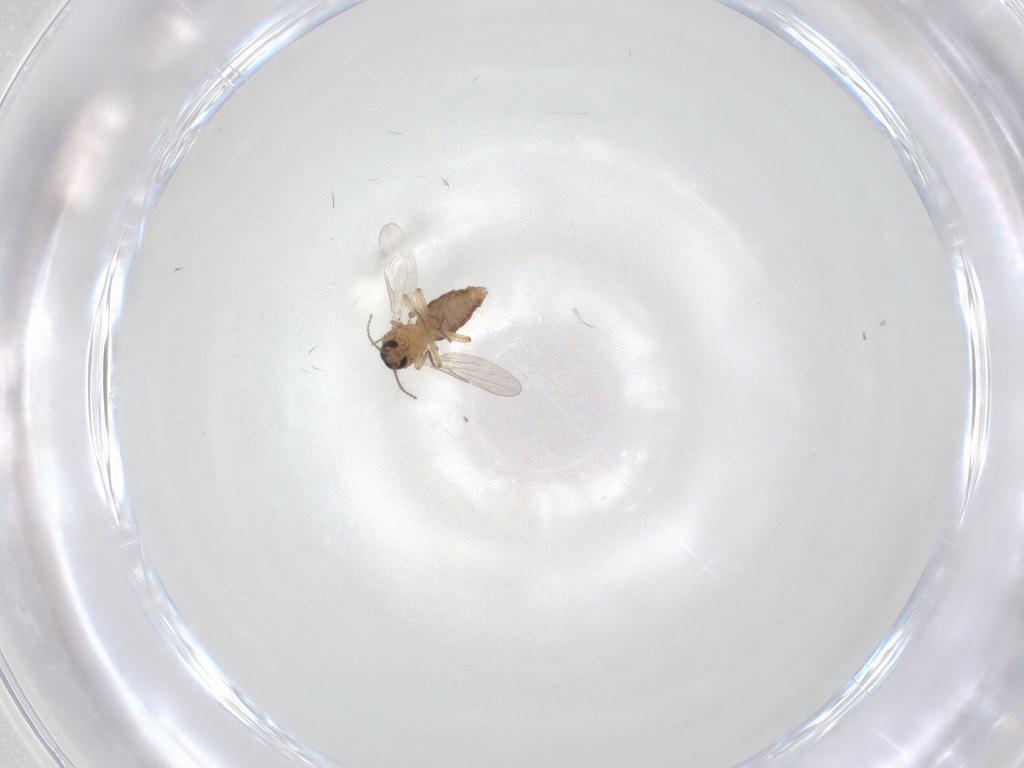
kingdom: Animalia
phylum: Arthropoda
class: Insecta
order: Diptera
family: Ceratopogonidae
